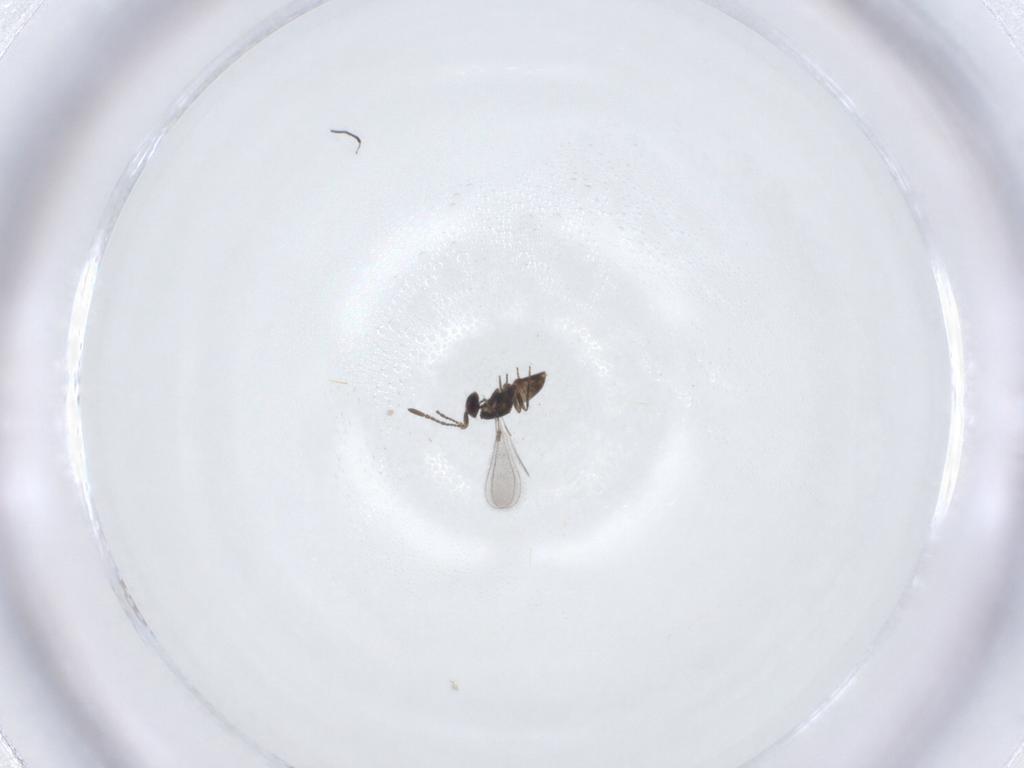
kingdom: Animalia
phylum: Arthropoda
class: Insecta
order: Hymenoptera
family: Mymaridae
